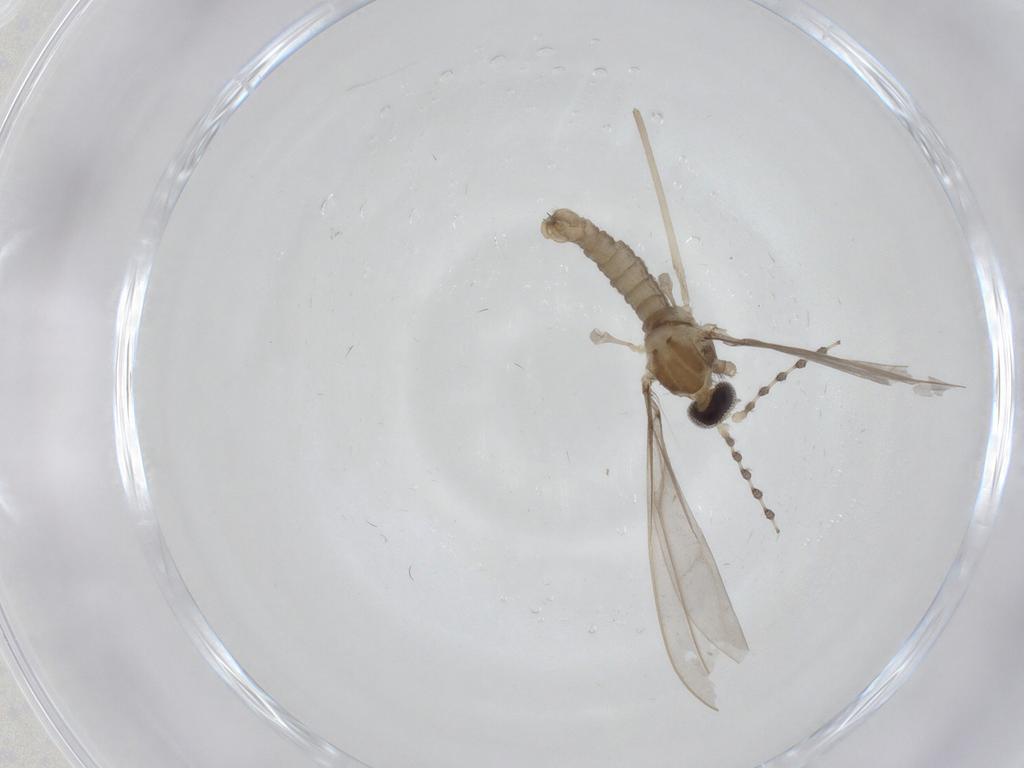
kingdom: Animalia
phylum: Arthropoda
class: Insecta
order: Diptera
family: Cecidomyiidae
